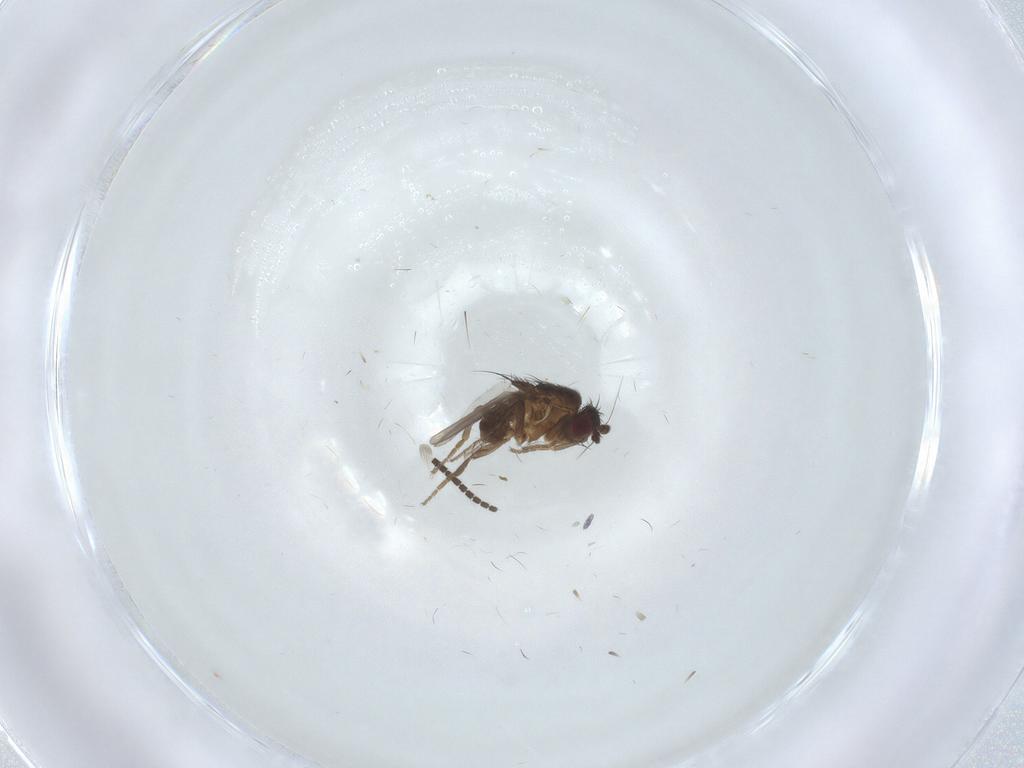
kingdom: Animalia
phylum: Arthropoda
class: Insecta
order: Diptera
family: Sphaeroceridae
